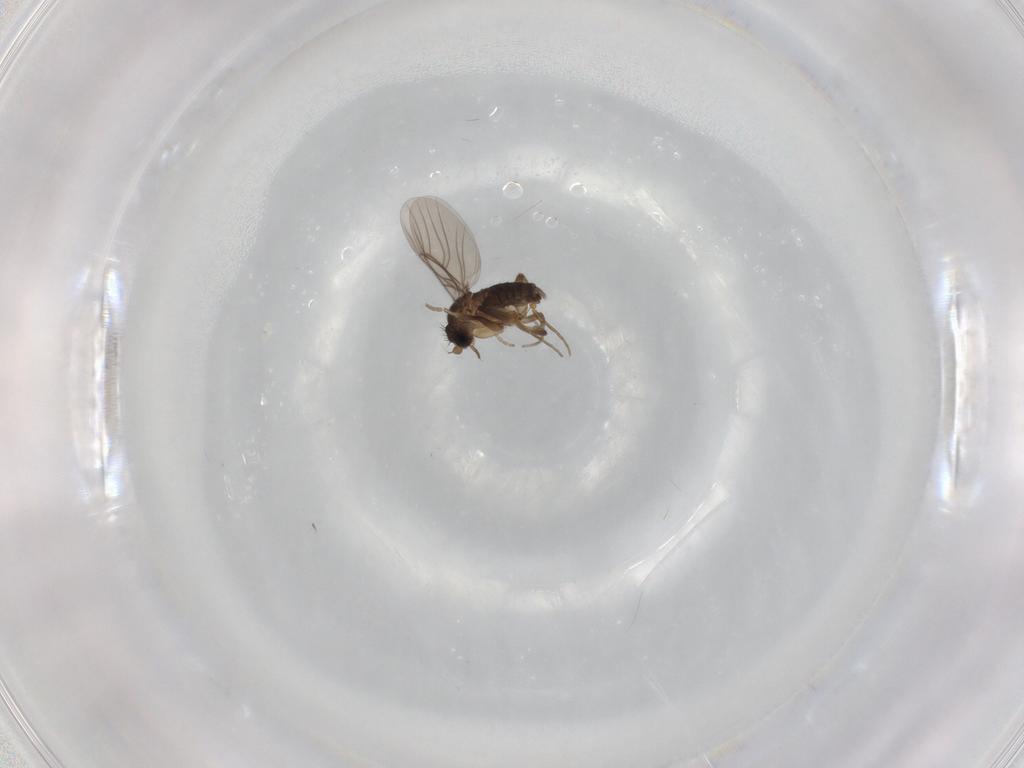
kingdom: Animalia
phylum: Arthropoda
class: Insecta
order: Diptera
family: Phoridae
